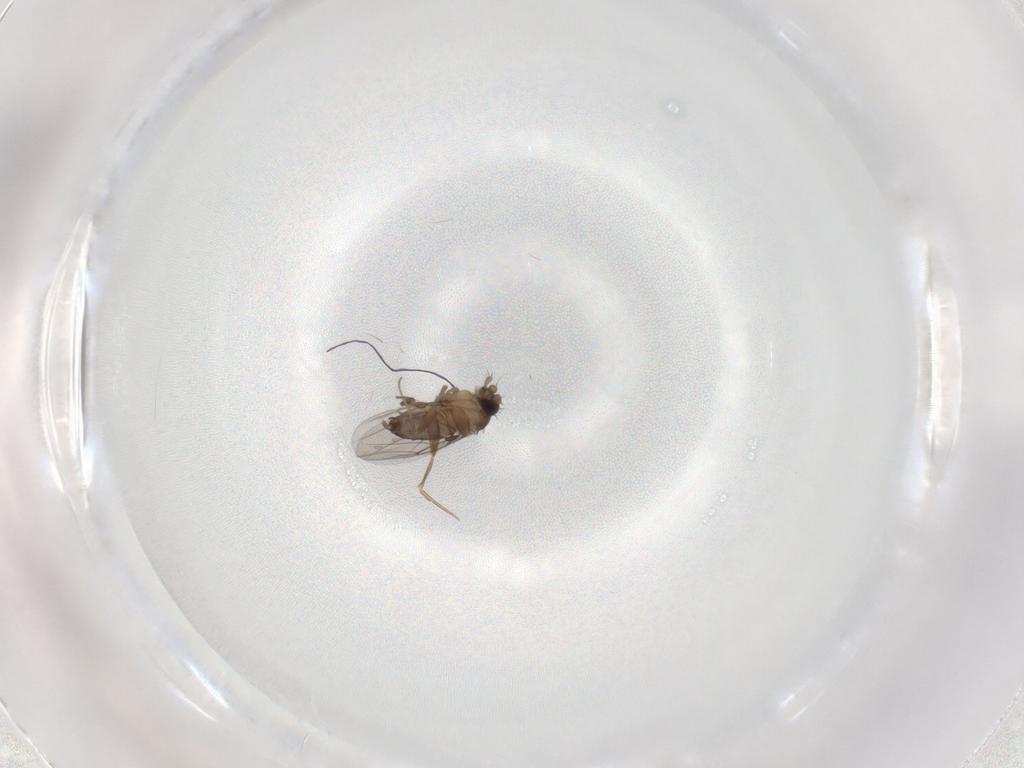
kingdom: Animalia
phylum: Arthropoda
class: Insecta
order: Diptera
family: Phoridae
